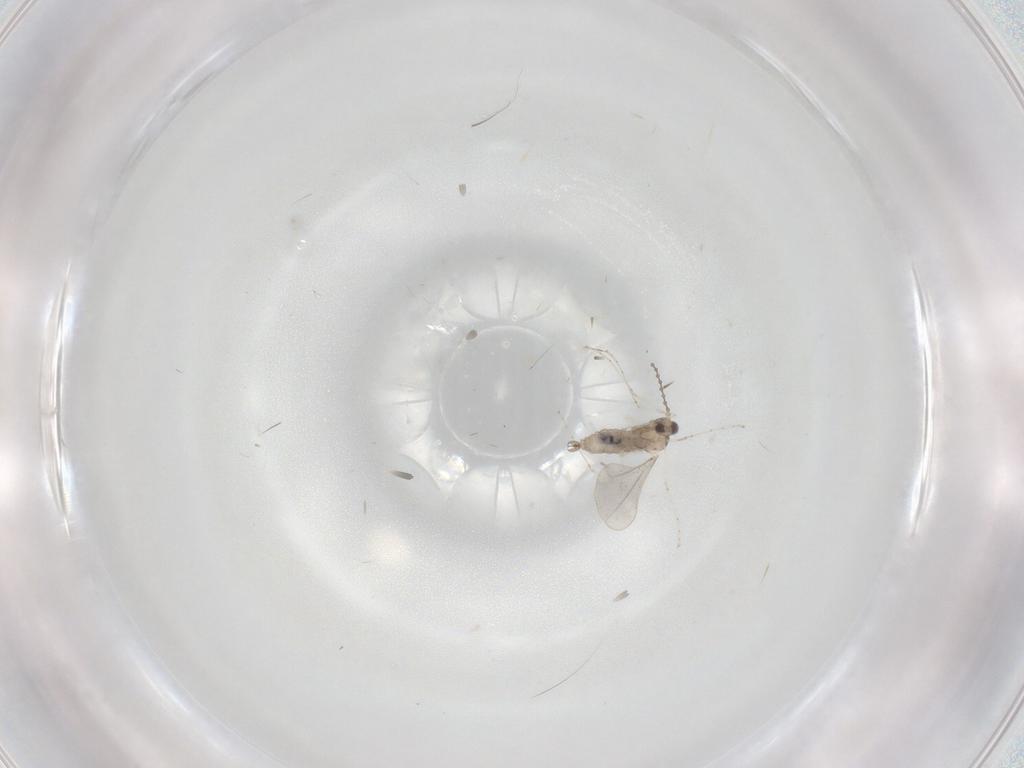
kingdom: Animalia
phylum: Arthropoda
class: Insecta
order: Diptera
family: Cecidomyiidae
